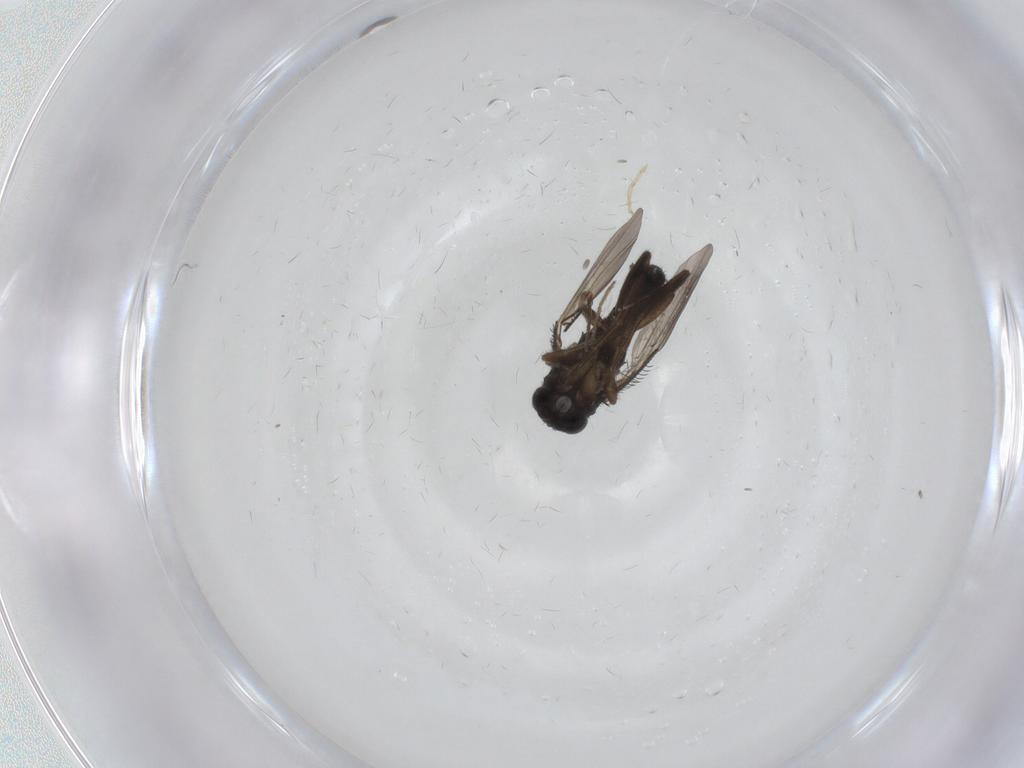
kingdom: Animalia
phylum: Arthropoda
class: Insecta
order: Diptera
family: Phoridae
